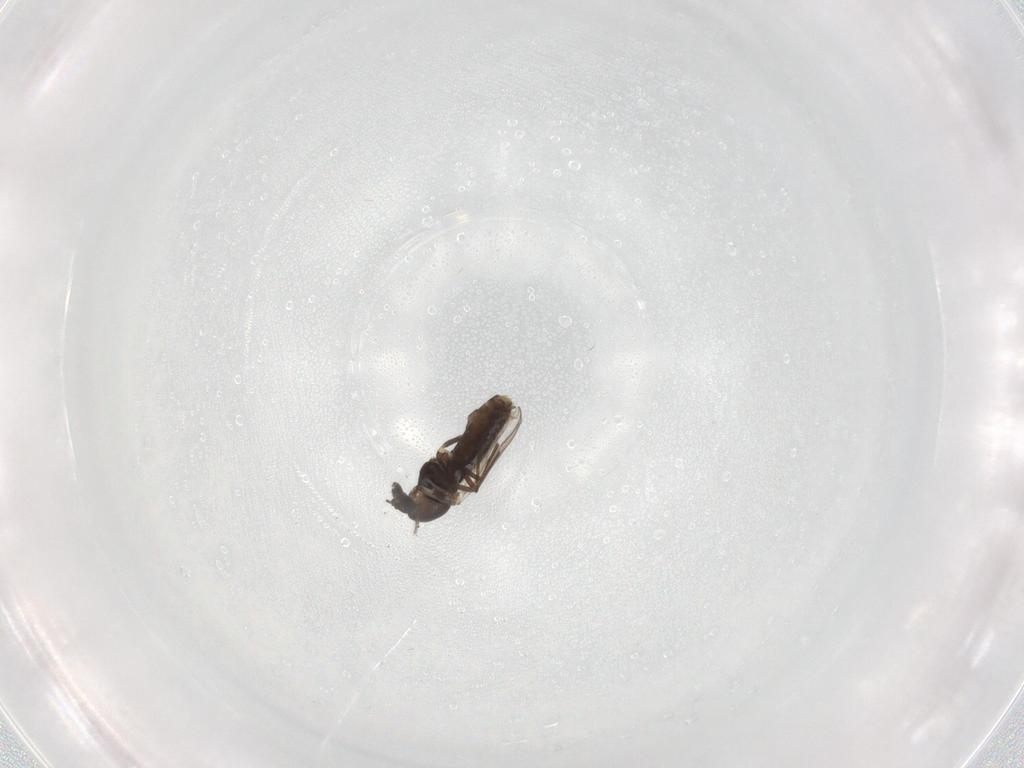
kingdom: Animalia
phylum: Arthropoda
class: Insecta
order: Diptera
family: Chironomidae
